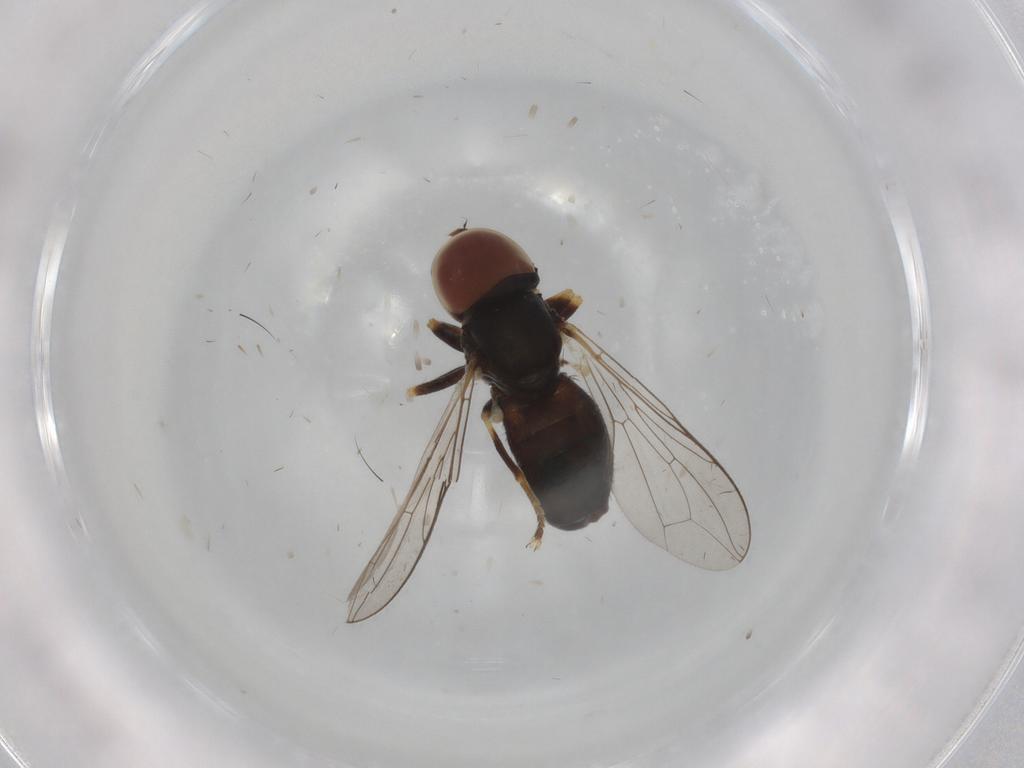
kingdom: Animalia
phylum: Arthropoda
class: Insecta
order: Diptera
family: Pipunculidae
